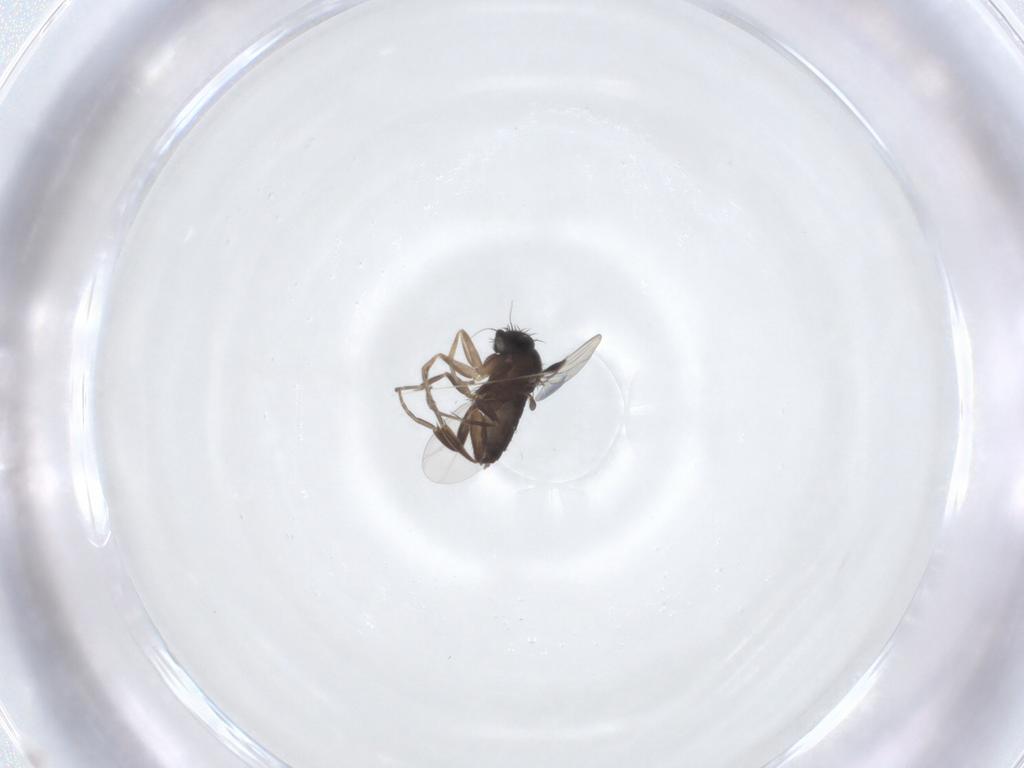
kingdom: Animalia
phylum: Arthropoda
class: Insecta
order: Diptera
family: Phoridae
